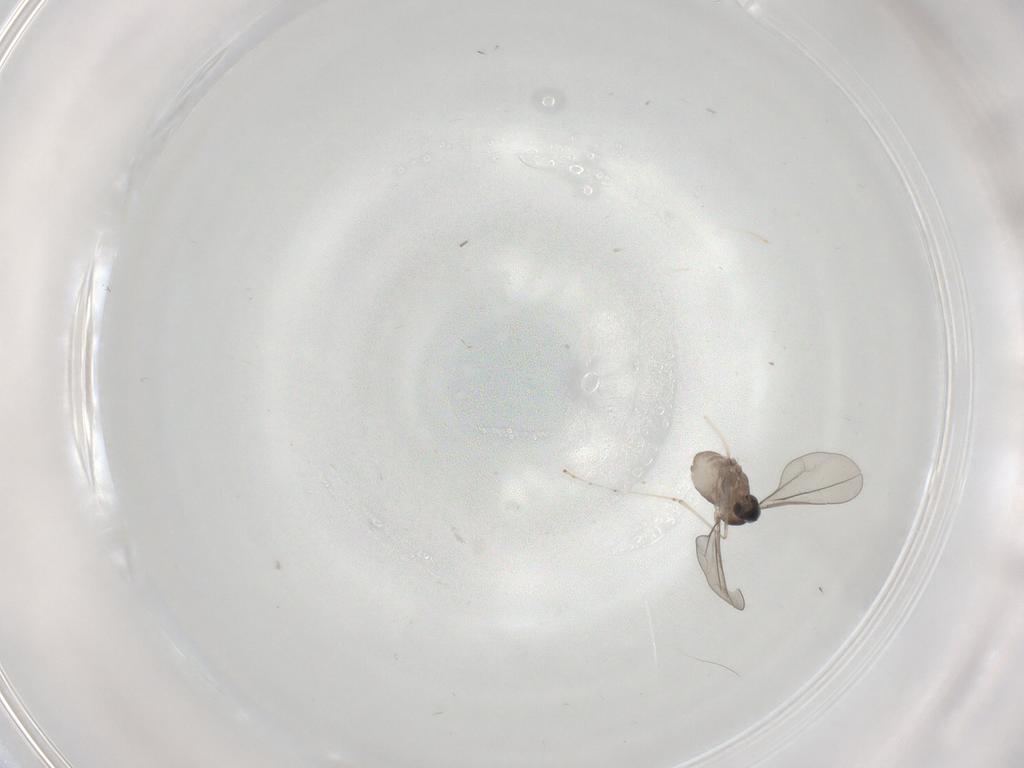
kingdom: Animalia
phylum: Arthropoda
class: Insecta
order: Diptera
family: Cecidomyiidae
